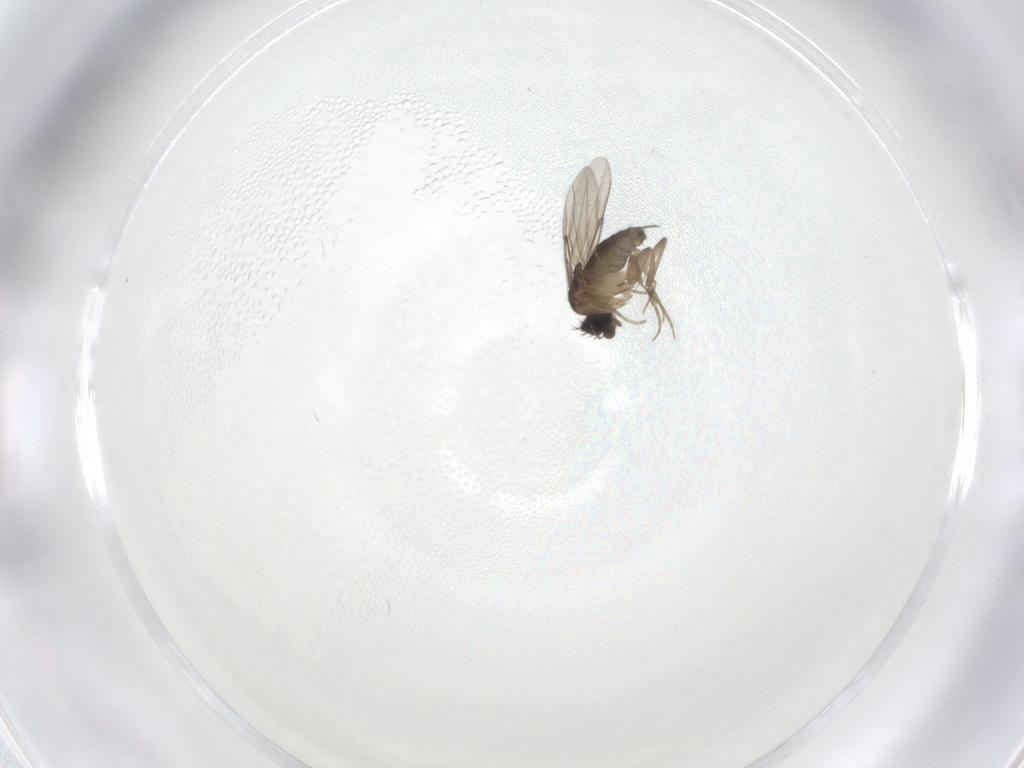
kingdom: Animalia
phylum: Arthropoda
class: Insecta
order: Diptera
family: Phoridae
